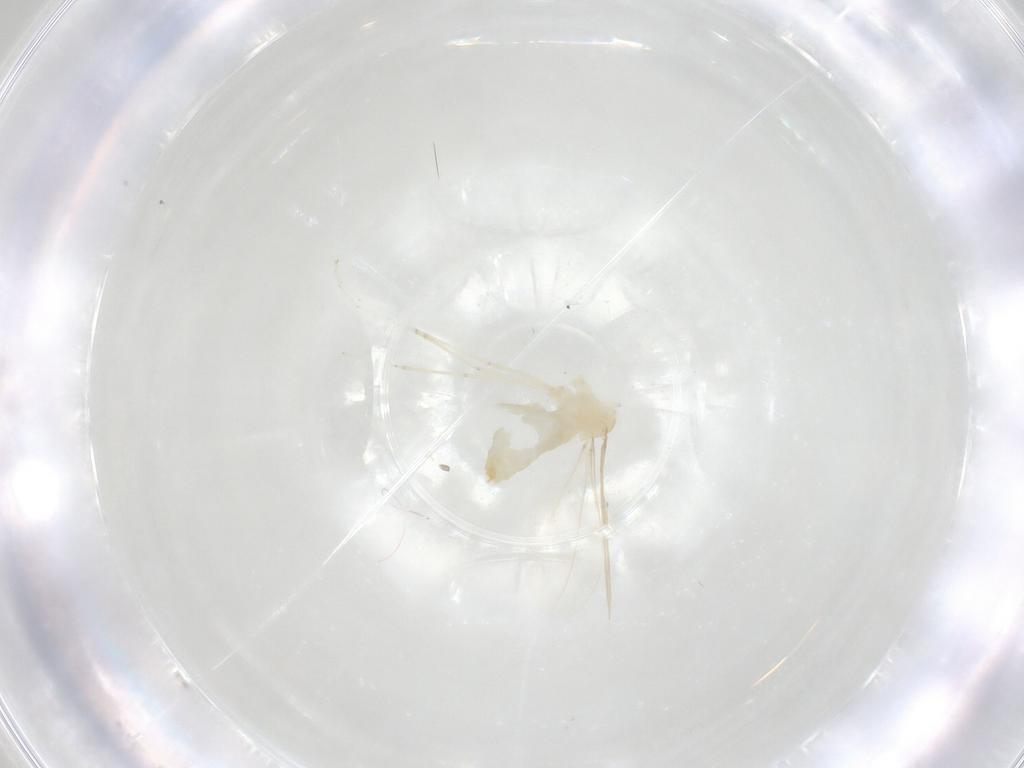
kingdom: Animalia
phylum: Arthropoda
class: Insecta
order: Diptera
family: Cecidomyiidae
